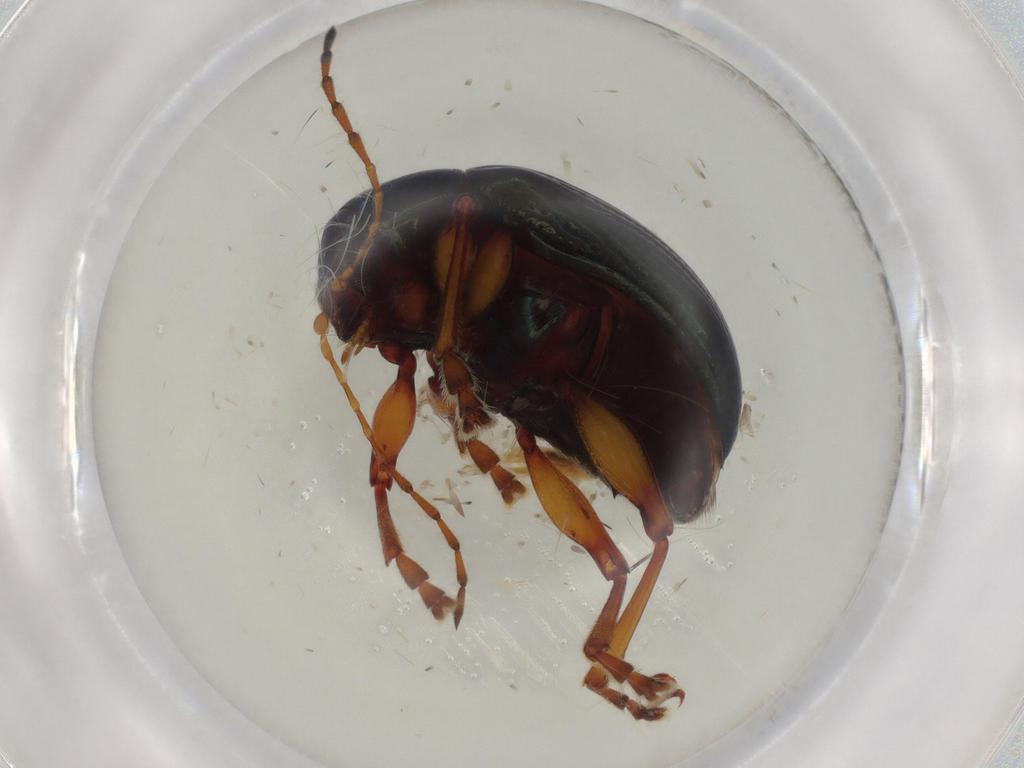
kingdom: Animalia
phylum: Arthropoda
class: Insecta
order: Coleoptera
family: Chrysomelidae
